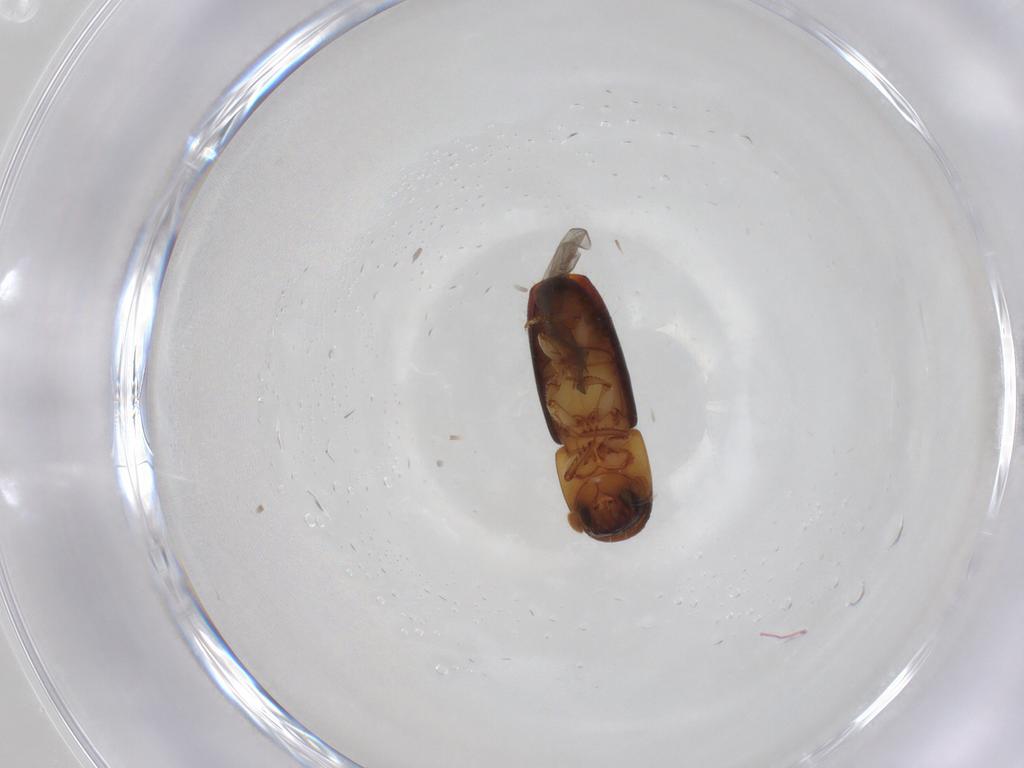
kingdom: Animalia
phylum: Arthropoda
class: Insecta
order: Coleoptera
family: Curculionidae
